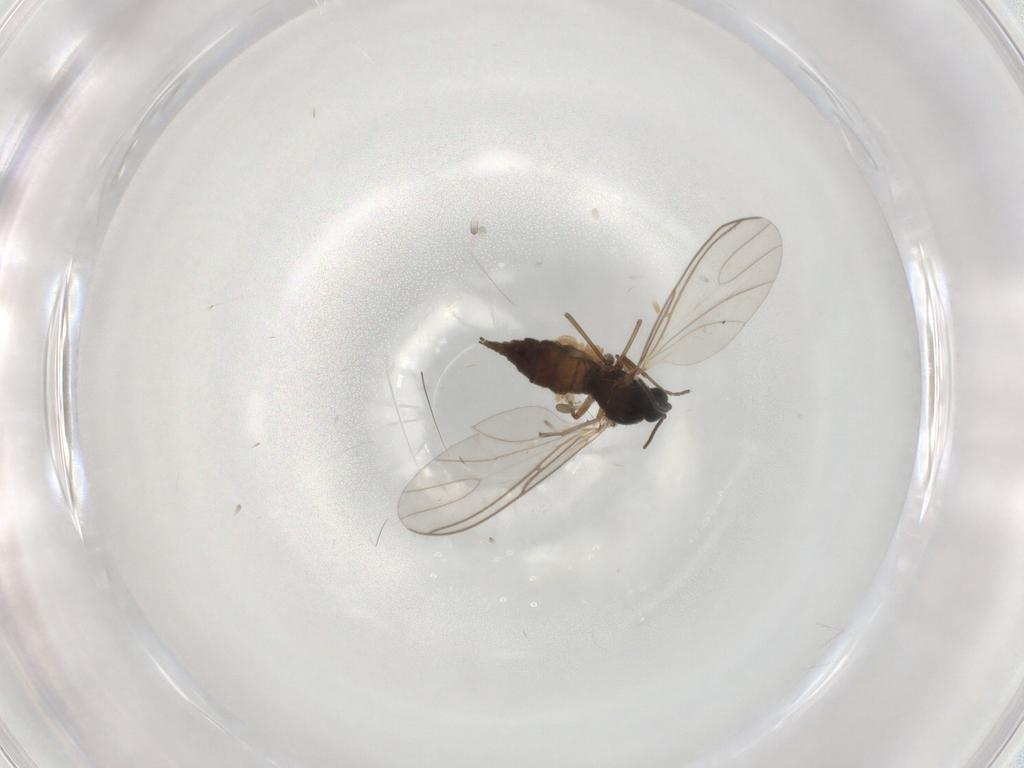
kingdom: Animalia
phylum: Arthropoda
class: Insecta
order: Diptera
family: Sciaridae
